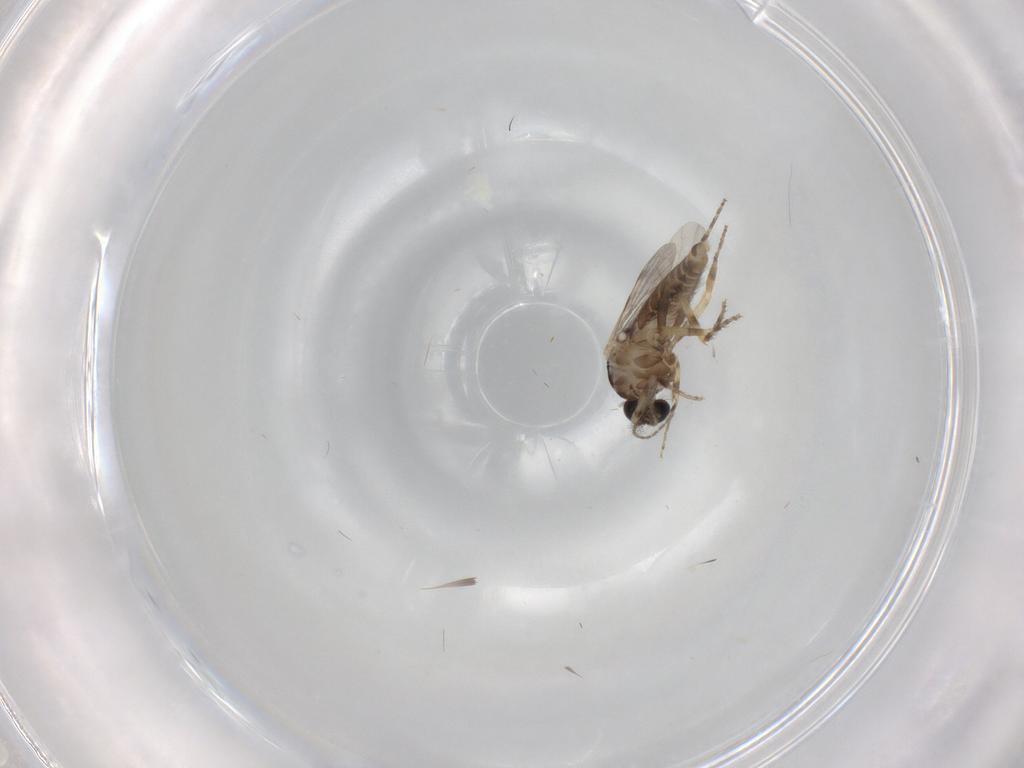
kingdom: Animalia
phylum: Arthropoda
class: Insecta
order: Diptera
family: Ceratopogonidae
